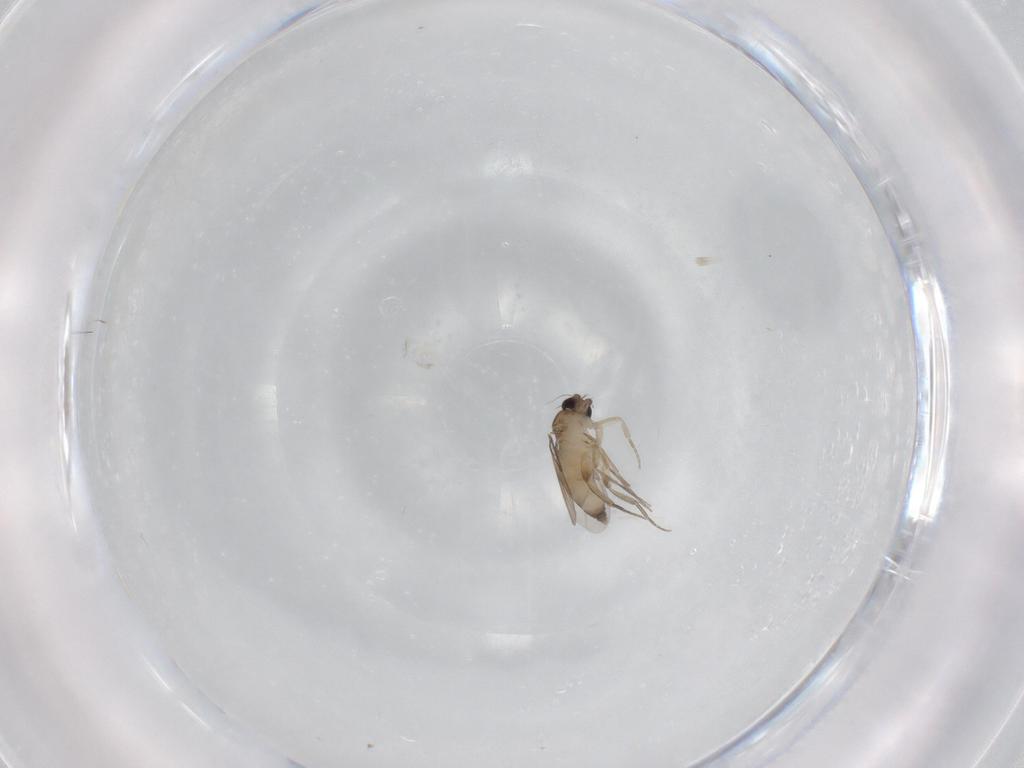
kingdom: Animalia
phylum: Arthropoda
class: Insecta
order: Diptera
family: Phoridae
